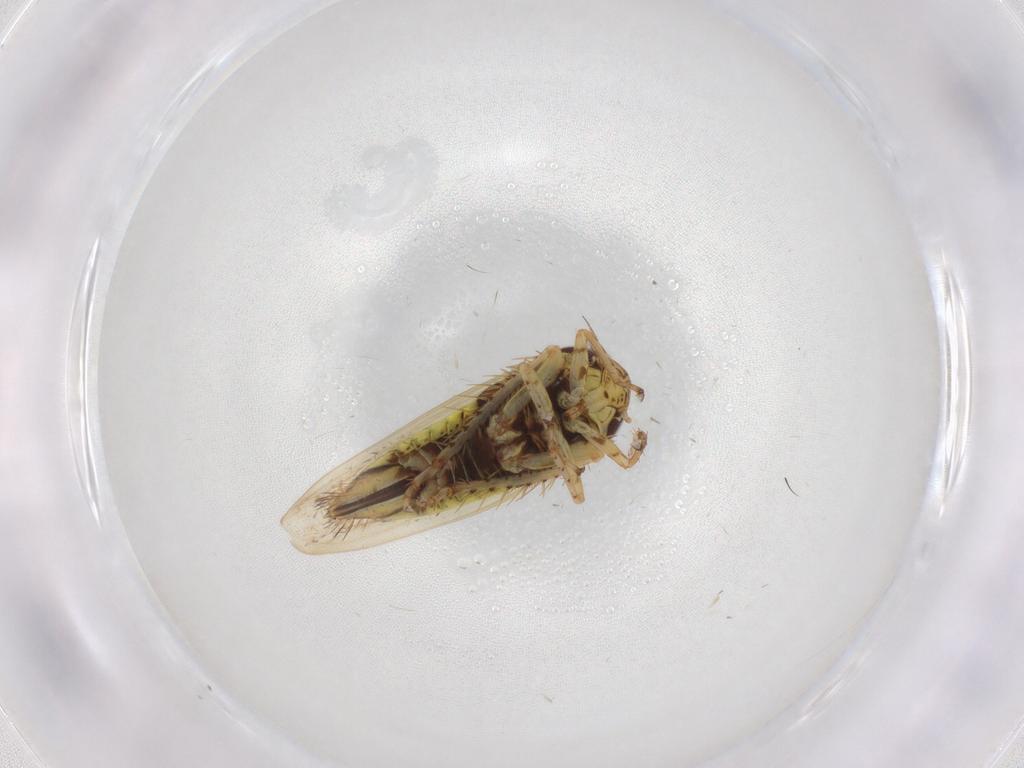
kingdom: Animalia
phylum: Arthropoda
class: Insecta
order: Hemiptera
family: Cicadellidae
